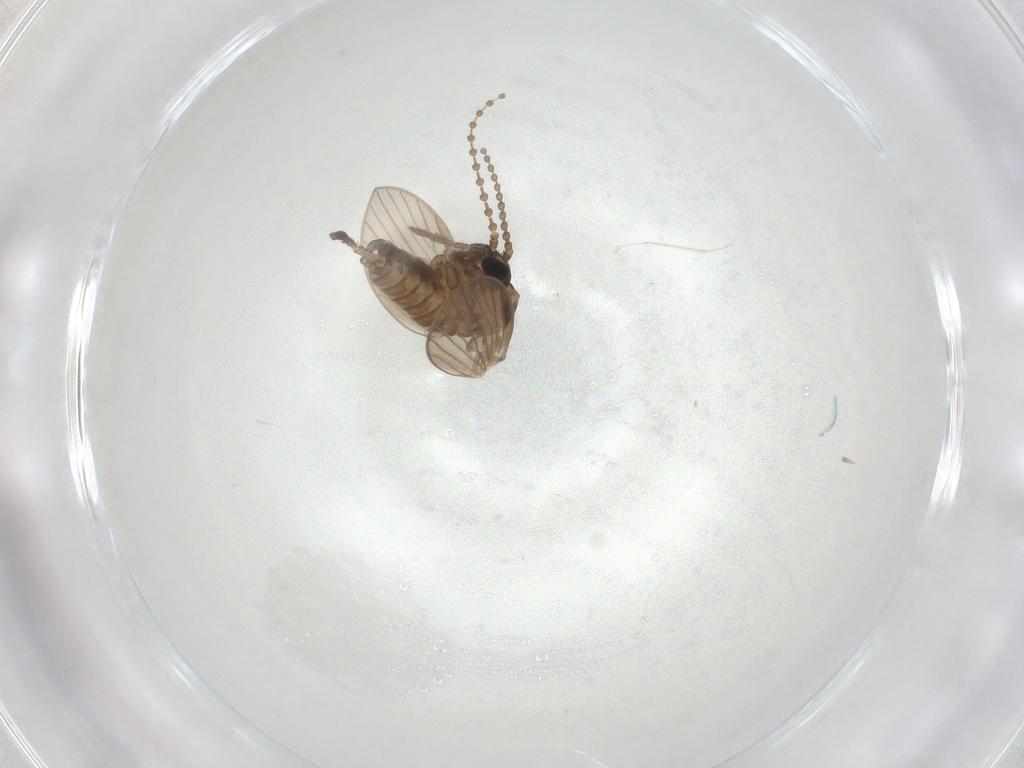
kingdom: Animalia
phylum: Arthropoda
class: Insecta
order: Diptera
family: Psychodidae
